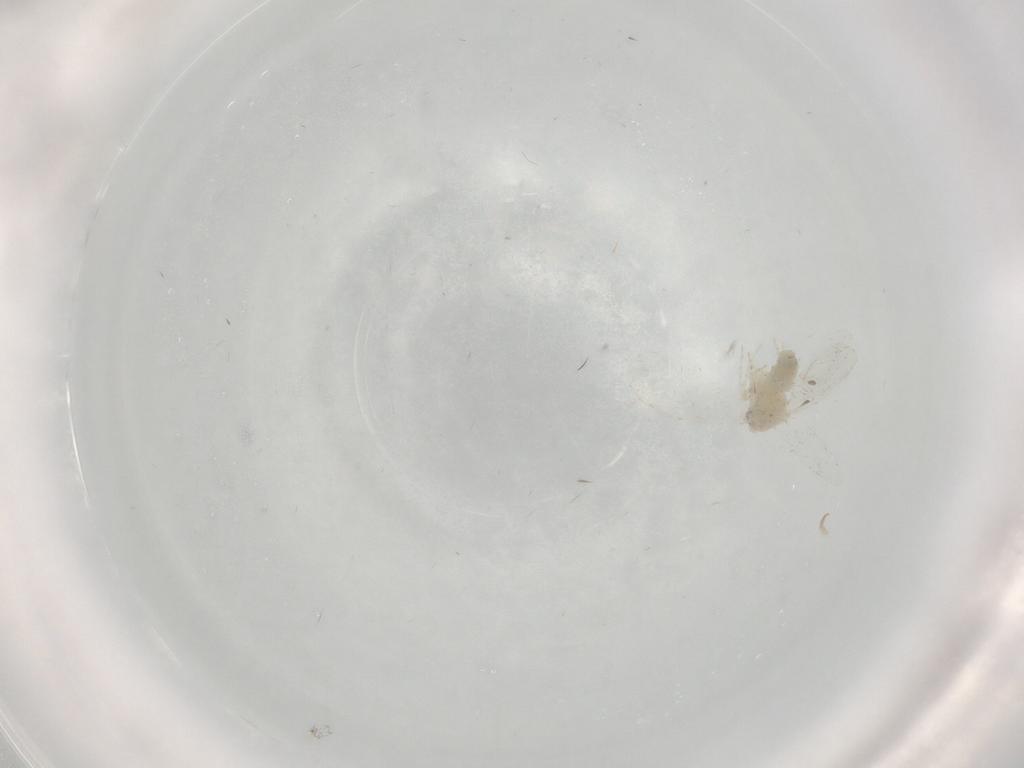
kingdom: Animalia
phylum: Arthropoda
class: Insecta
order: Hemiptera
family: Aleyrodidae
